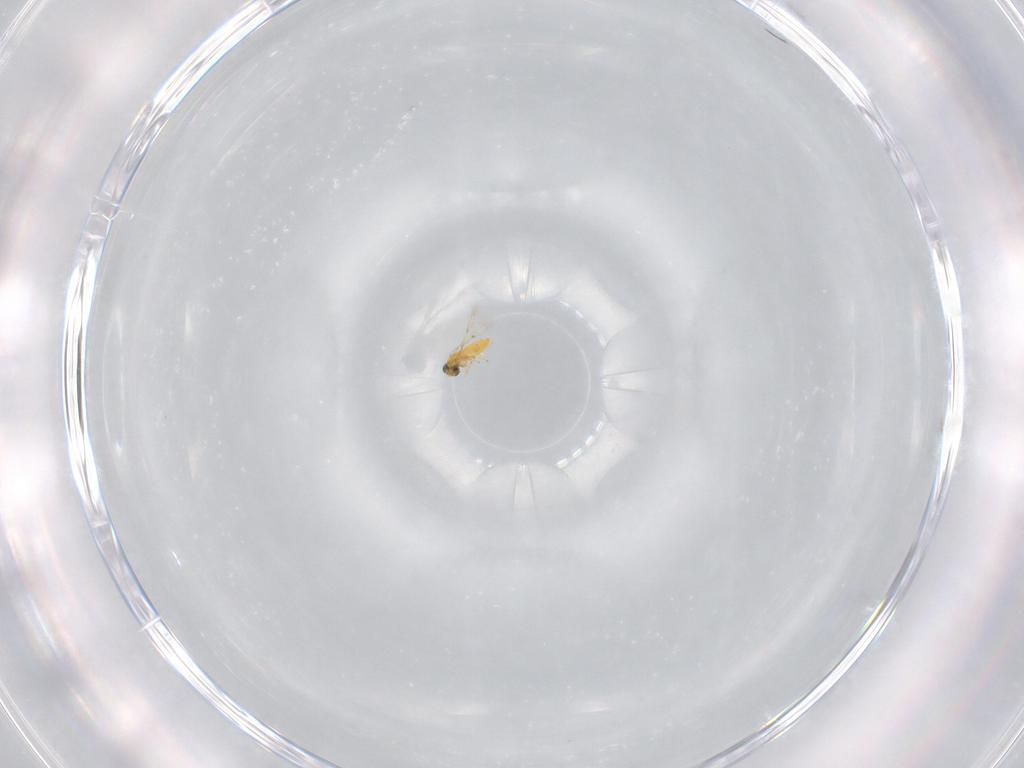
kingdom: Animalia
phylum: Arthropoda
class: Insecta
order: Hymenoptera
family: Trichogrammatidae
